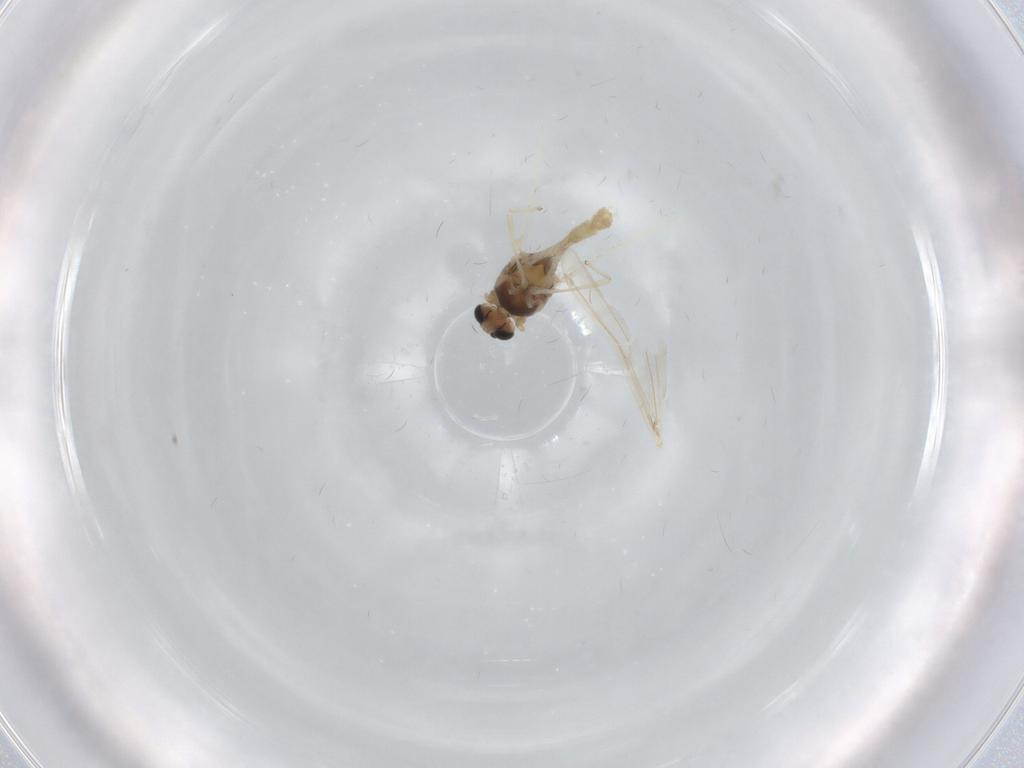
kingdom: Animalia
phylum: Arthropoda
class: Insecta
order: Diptera
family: Chironomidae
